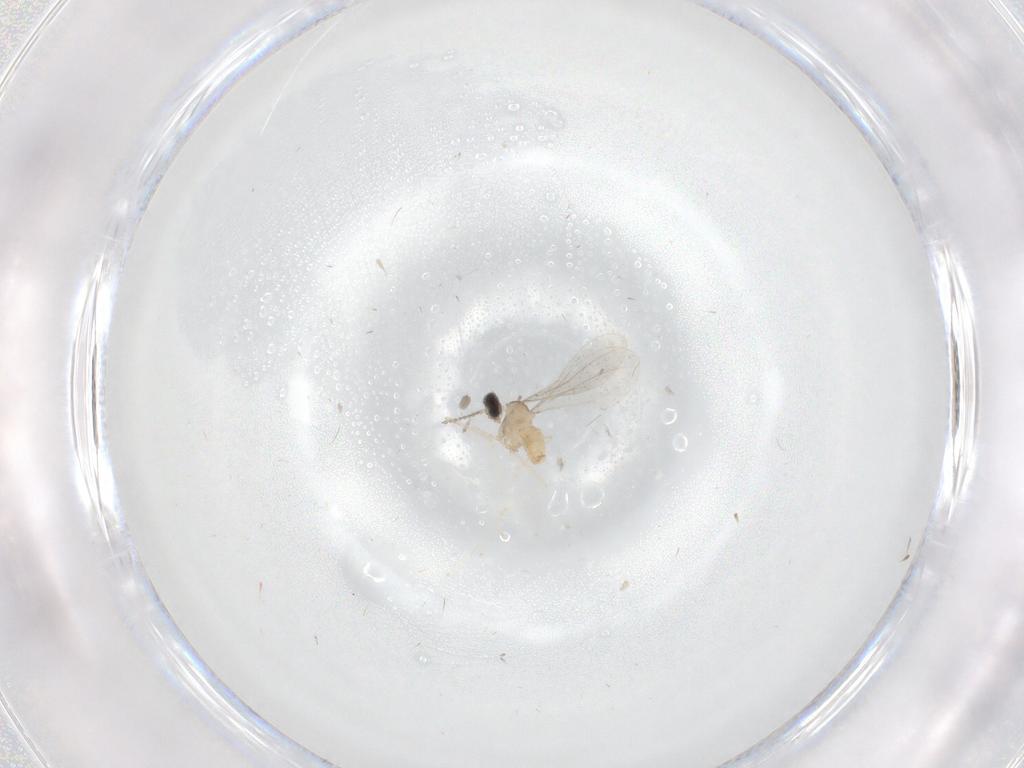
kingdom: Animalia
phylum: Arthropoda
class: Insecta
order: Diptera
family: Cecidomyiidae
